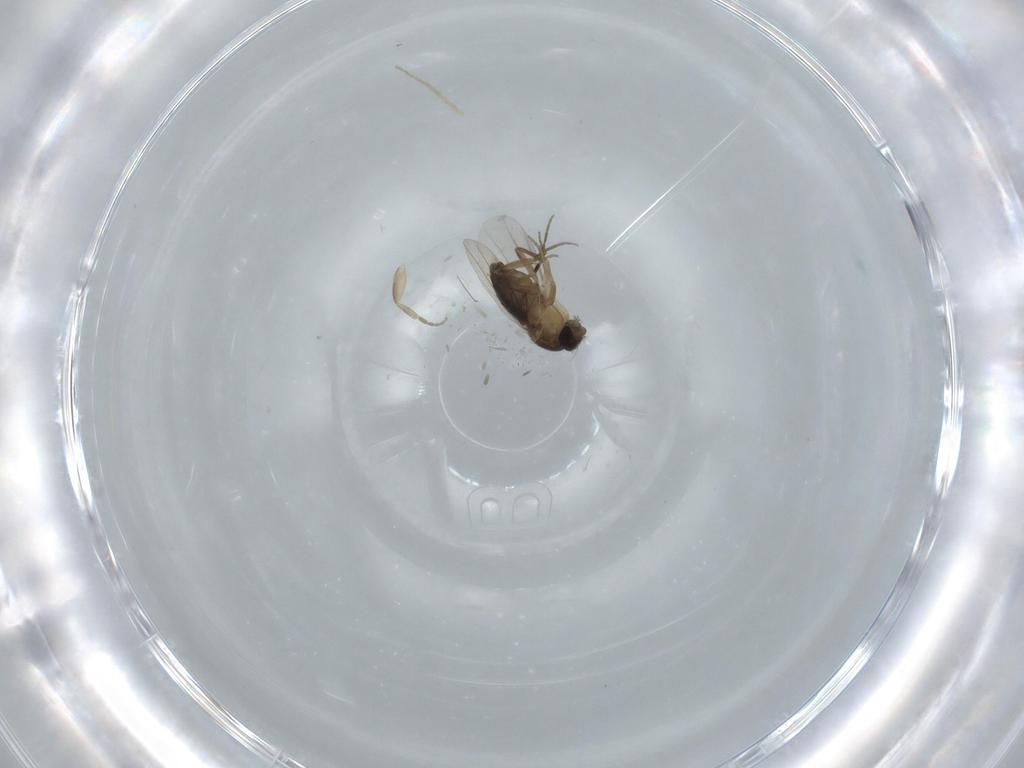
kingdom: Animalia
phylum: Arthropoda
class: Insecta
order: Diptera
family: Phoridae
